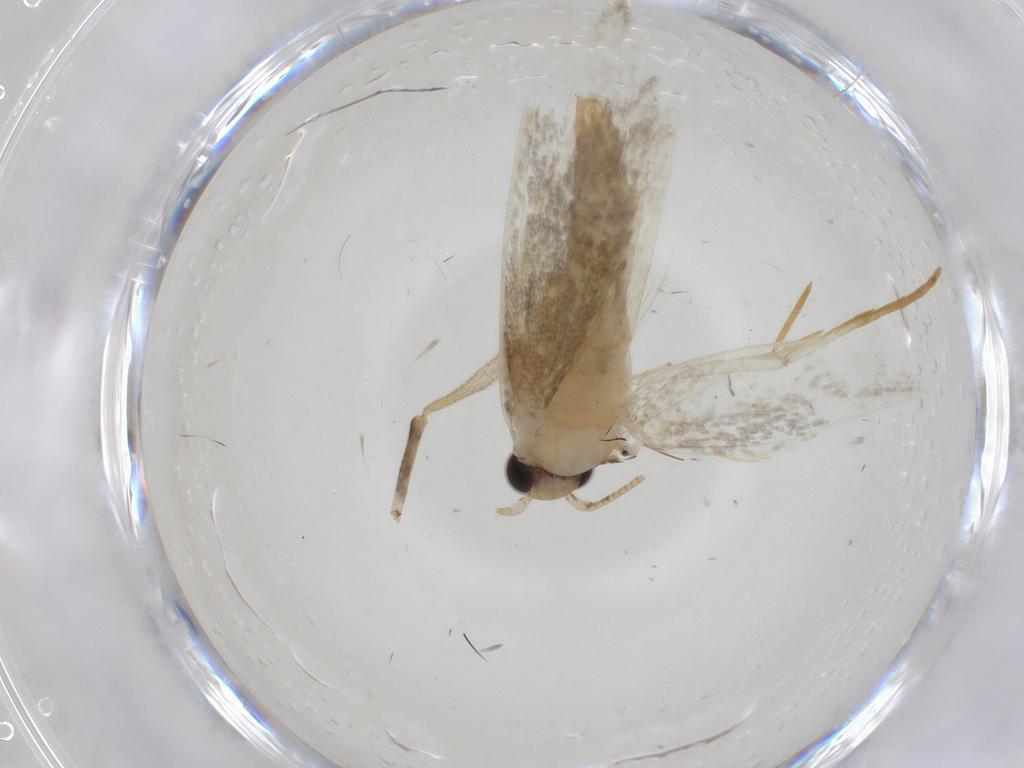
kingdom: Animalia
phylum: Arthropoda
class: Insecta
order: Lepidoptera
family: Tineidae
